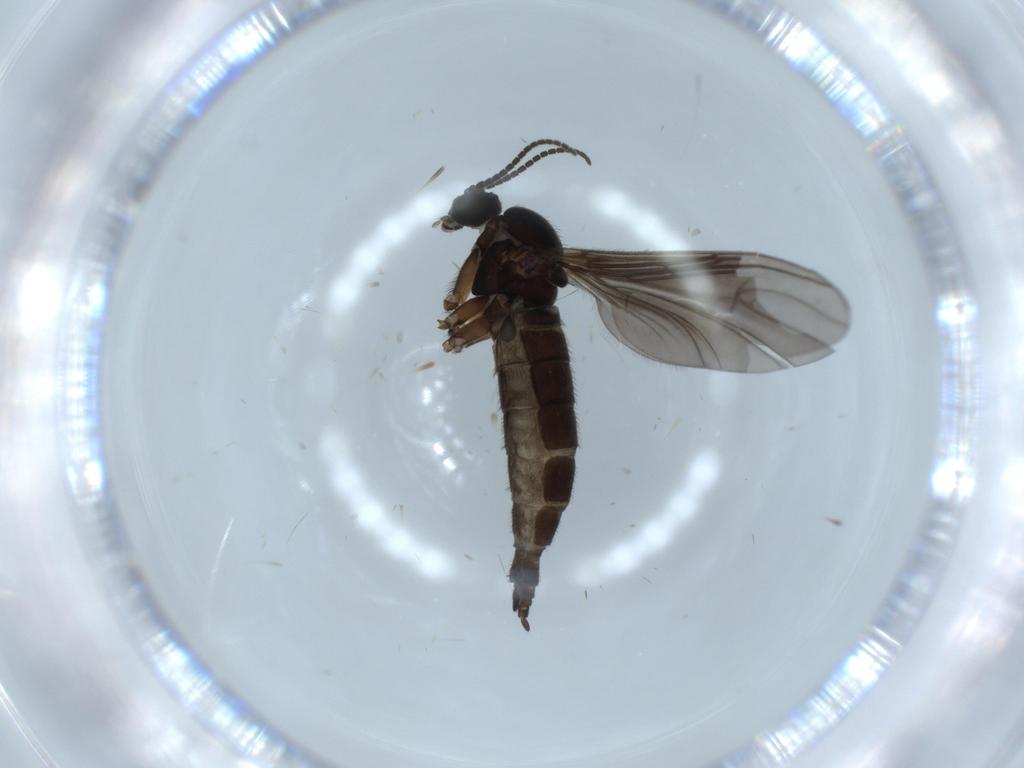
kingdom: Animalia
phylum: Arthropoda
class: Insecta
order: Diptera
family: Sciaridae
